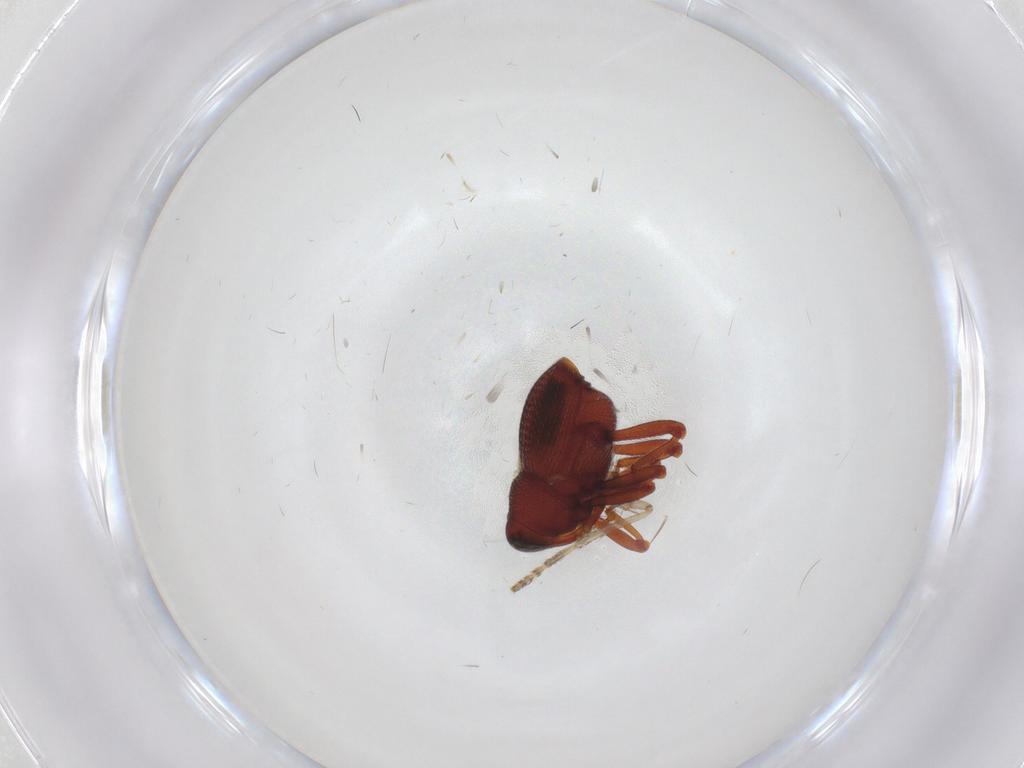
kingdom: Animalia
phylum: Arthropoda
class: Insecta
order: Coleoptera
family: Curculionidae
